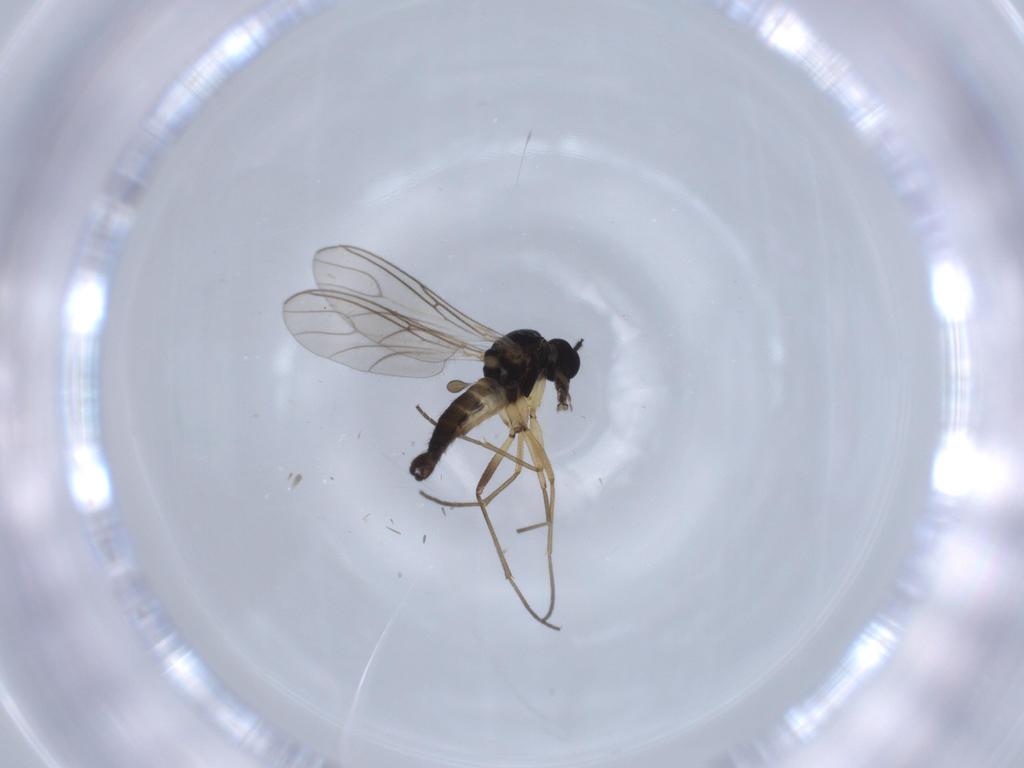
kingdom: Animalia
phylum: Arthropoda
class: Insecta
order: Diptera
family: Sciaridae
